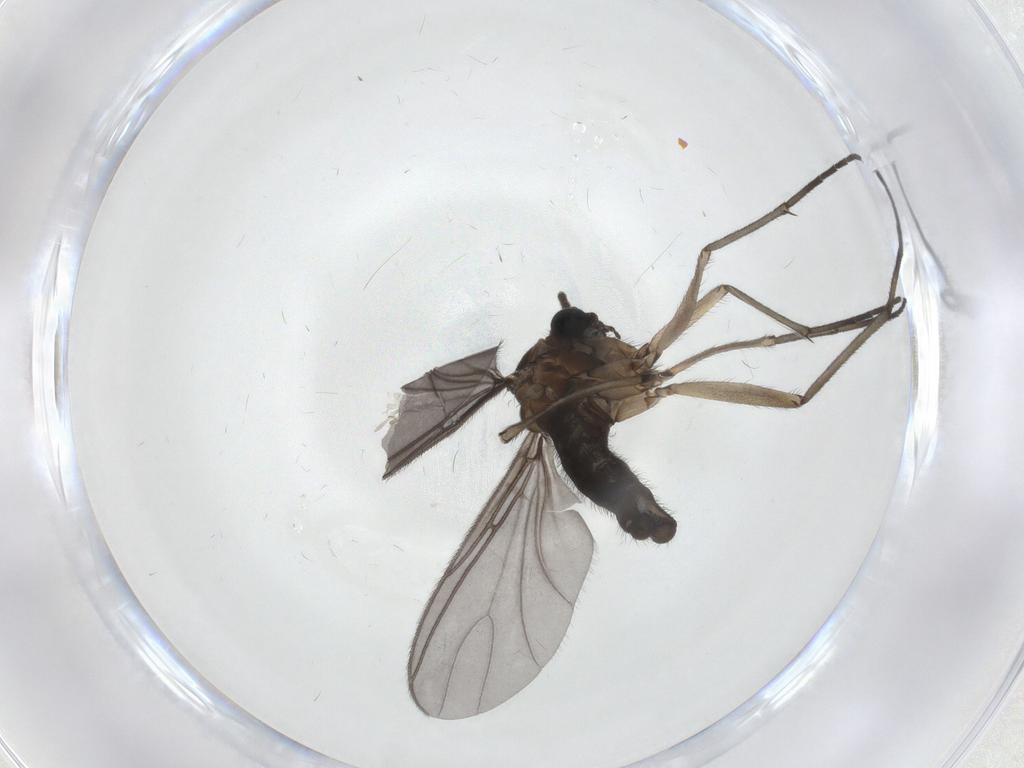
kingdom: Animalia
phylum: Arthropoda
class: Insecta
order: Diptera
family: Sciaridae
